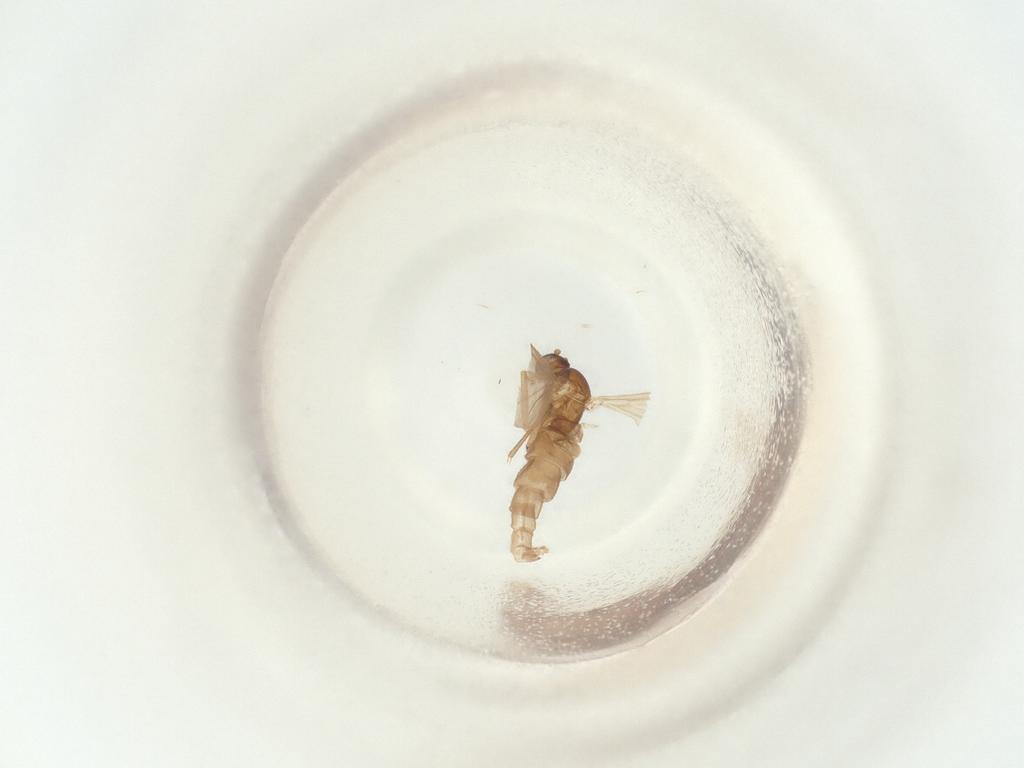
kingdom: Animalia
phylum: Arthropoda
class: Insecta
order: Diptera
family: Sciaridae
